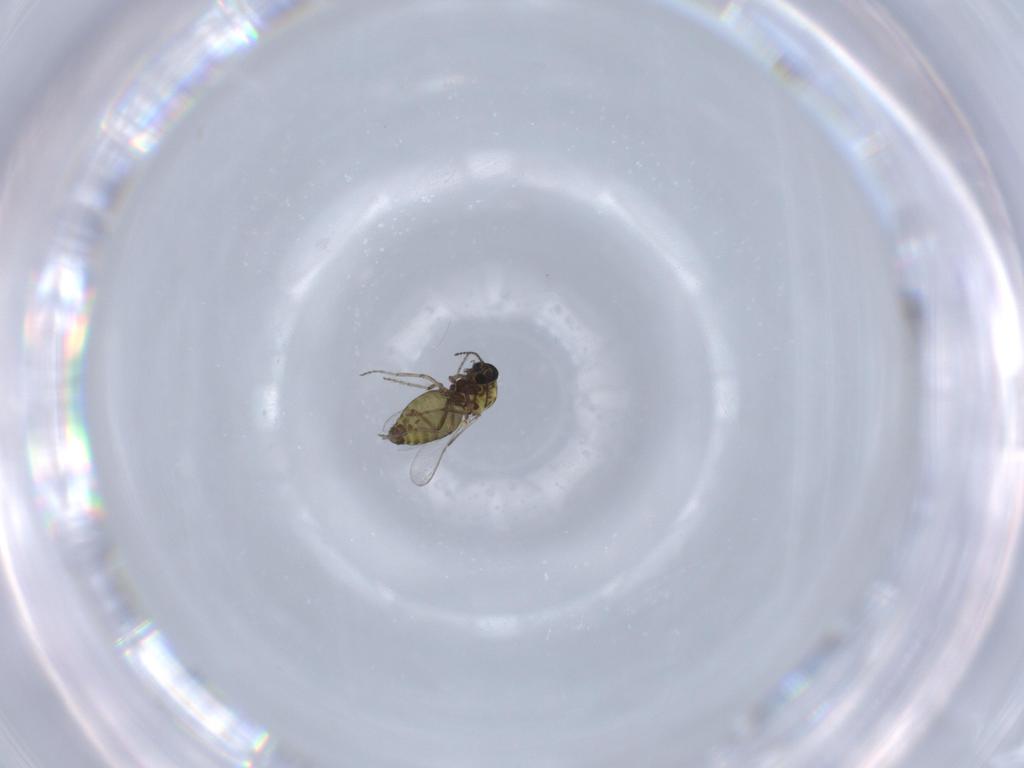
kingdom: Animalia
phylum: Arthropoda
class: Insecta
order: Diptera
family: Ceratopogonidae
